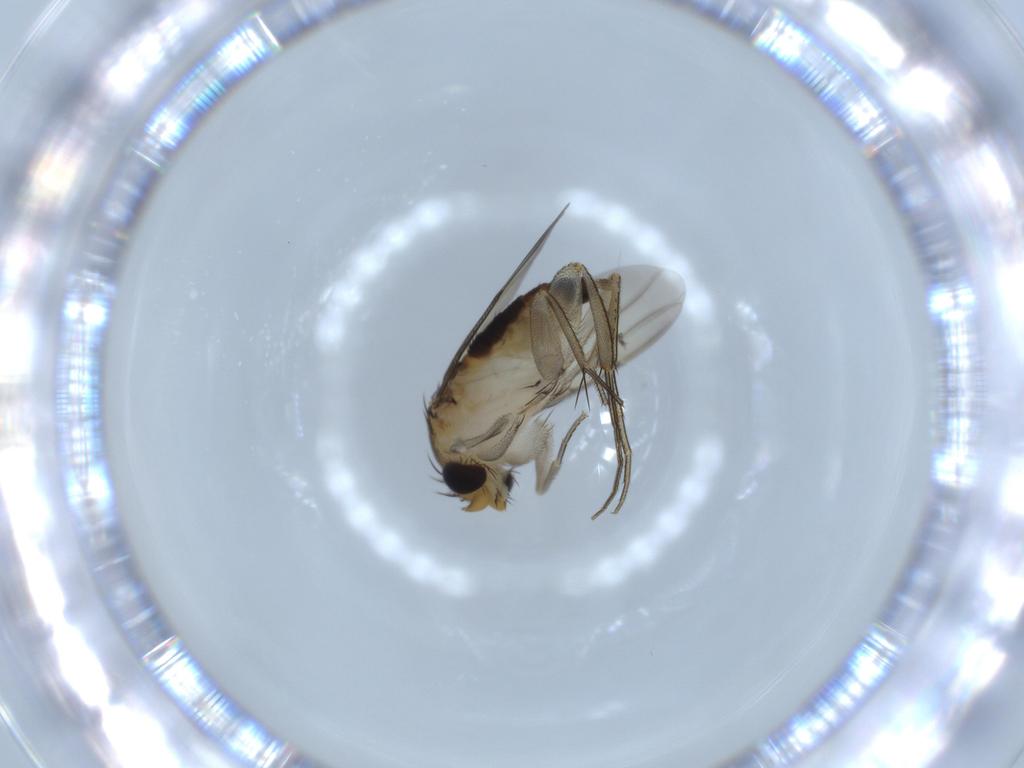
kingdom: Animalia
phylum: Arthropoda
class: Insecta
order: Diptera
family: Phoridae
